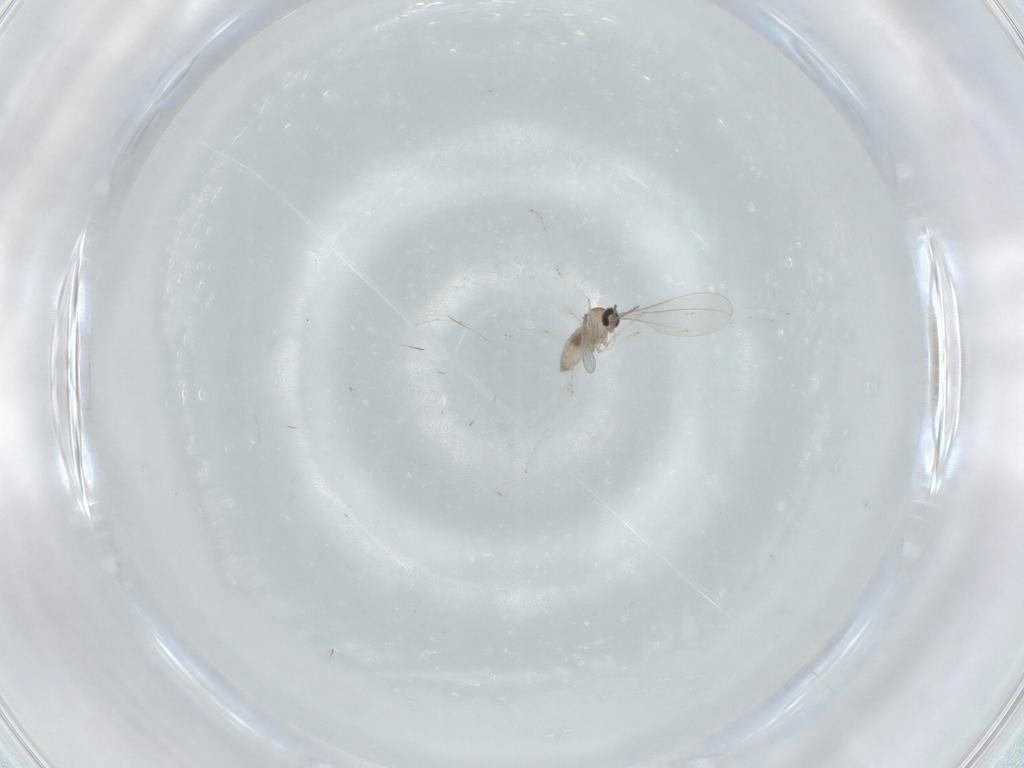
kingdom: Animalia
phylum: Arthropoda
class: Insecta
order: Diptera
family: Cecidomyiidae
